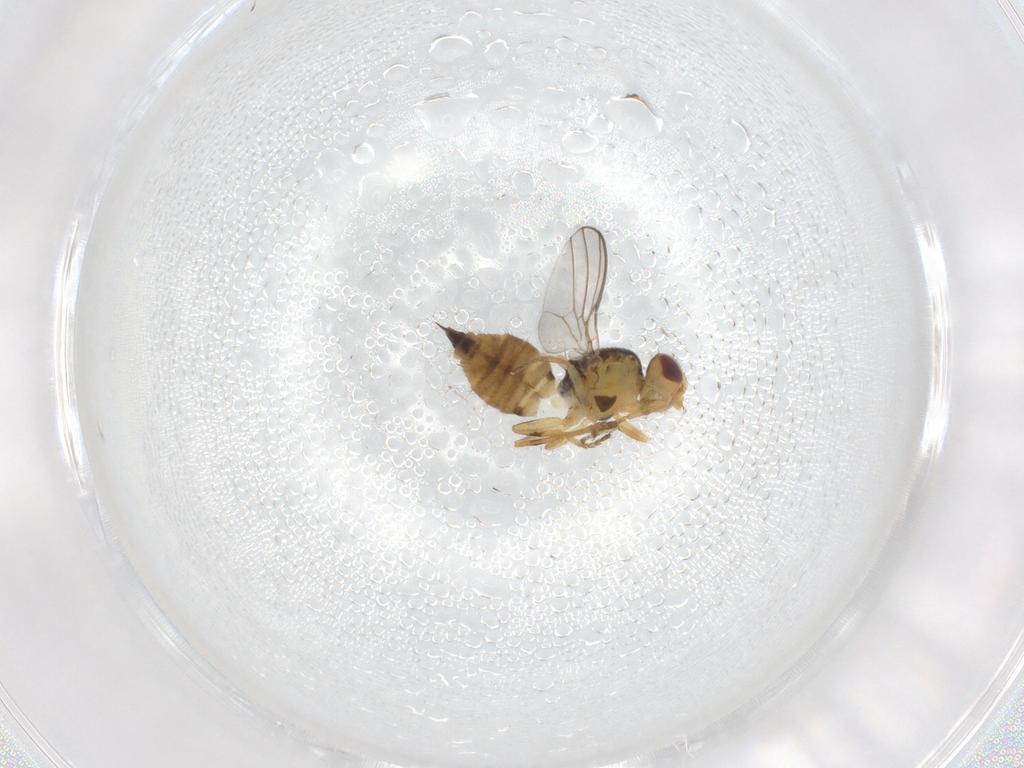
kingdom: Animalia
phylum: Arthropoda
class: Insecta
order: Diptera
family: Chloropidae
